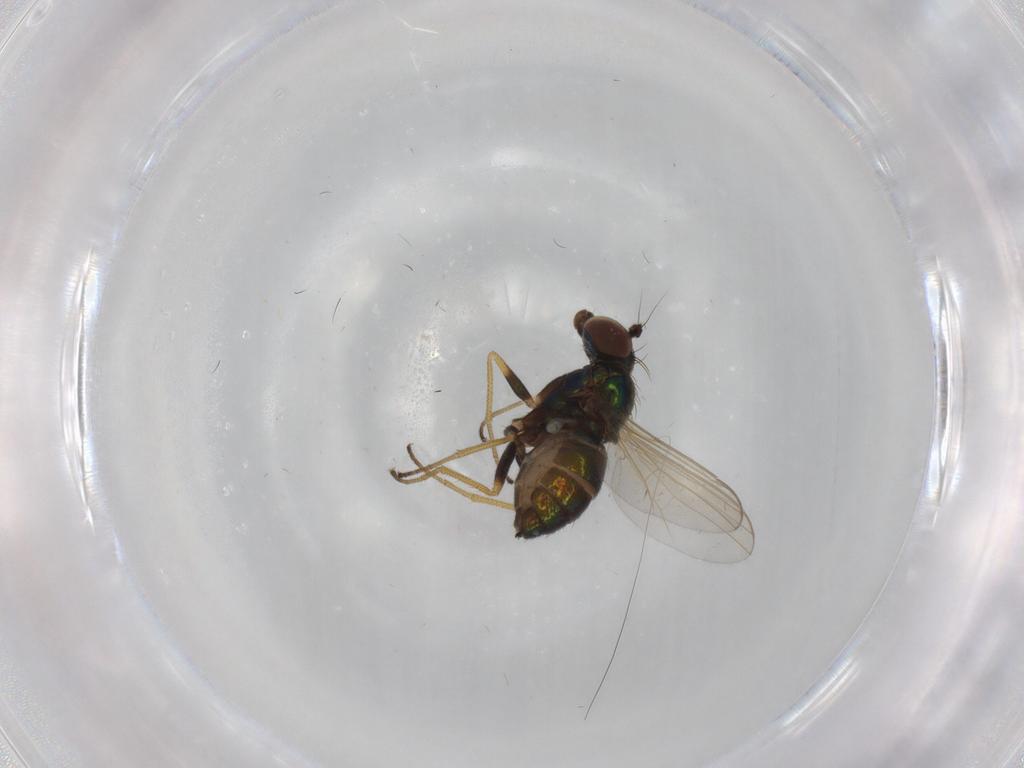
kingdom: Animalia
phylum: Arthropoda
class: Insecta
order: Diptera
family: Dolichopodidae
